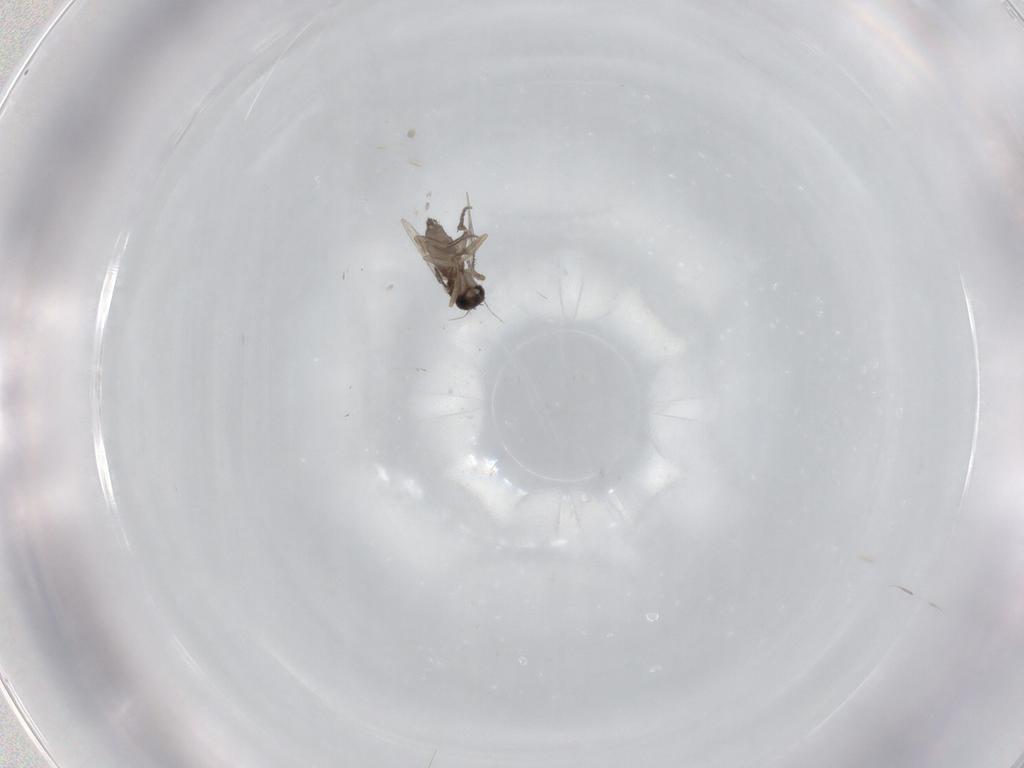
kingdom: Animalia
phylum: Arthropoda
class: Insecta
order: Diptera
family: Phoridae
